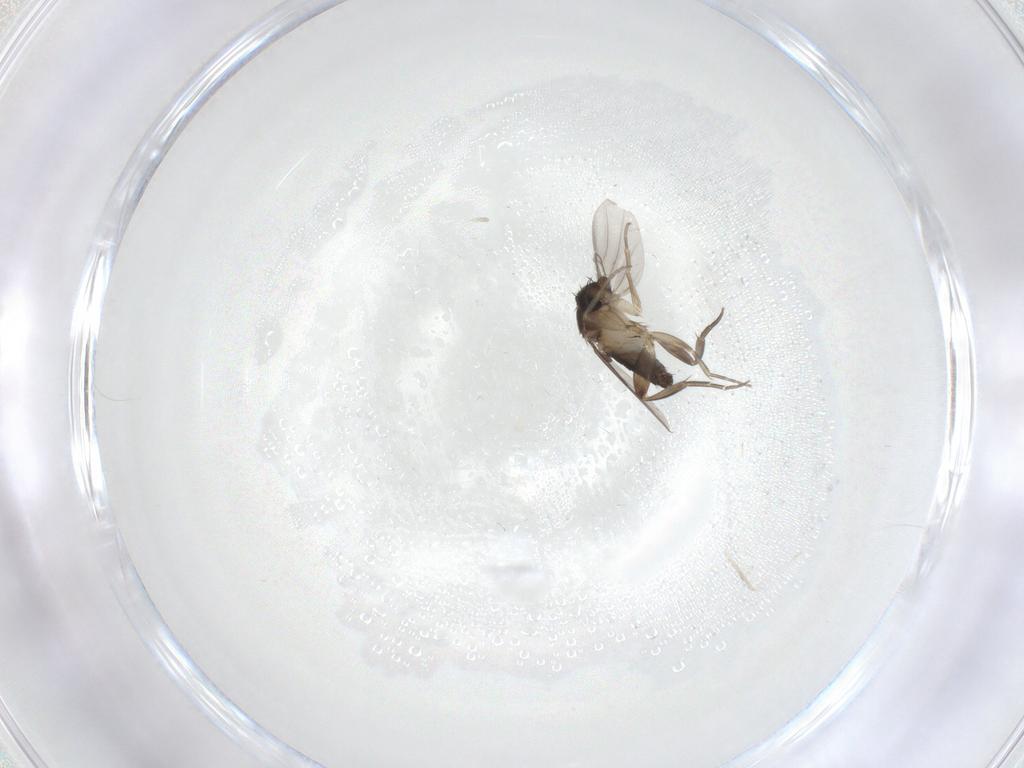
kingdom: Animalia
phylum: Arthropoda
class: Insecta
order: Diptera
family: Phoridae
